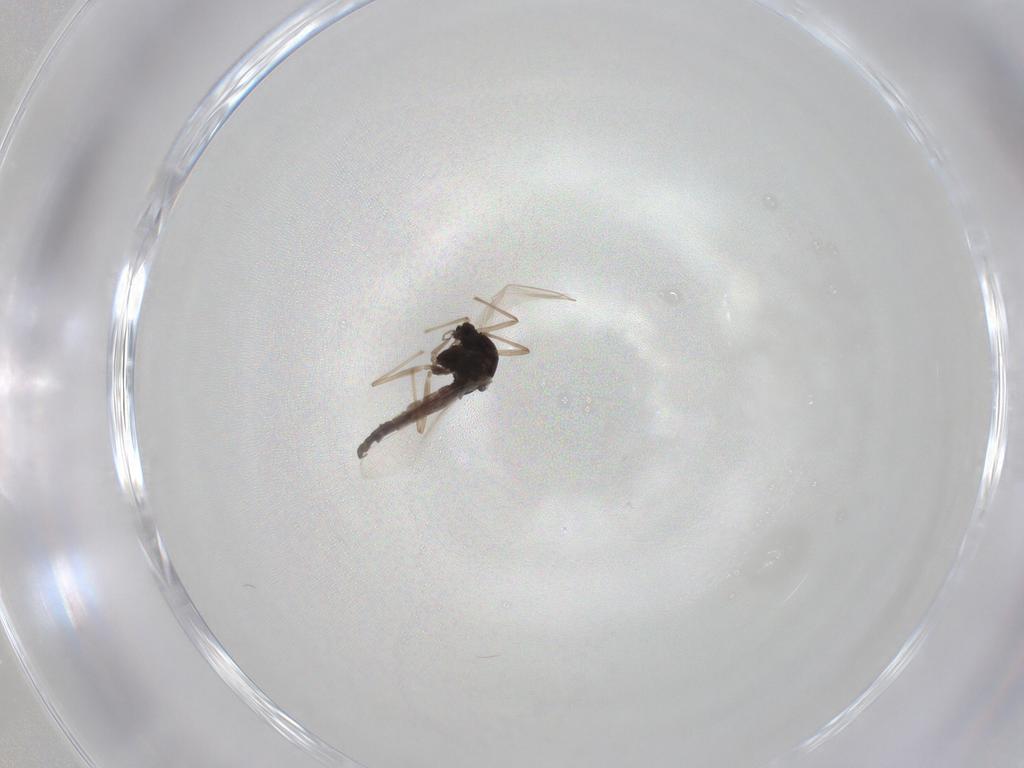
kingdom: Animalia
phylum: Arthropoda
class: Insecta
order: Diptera
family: Chironomidae
